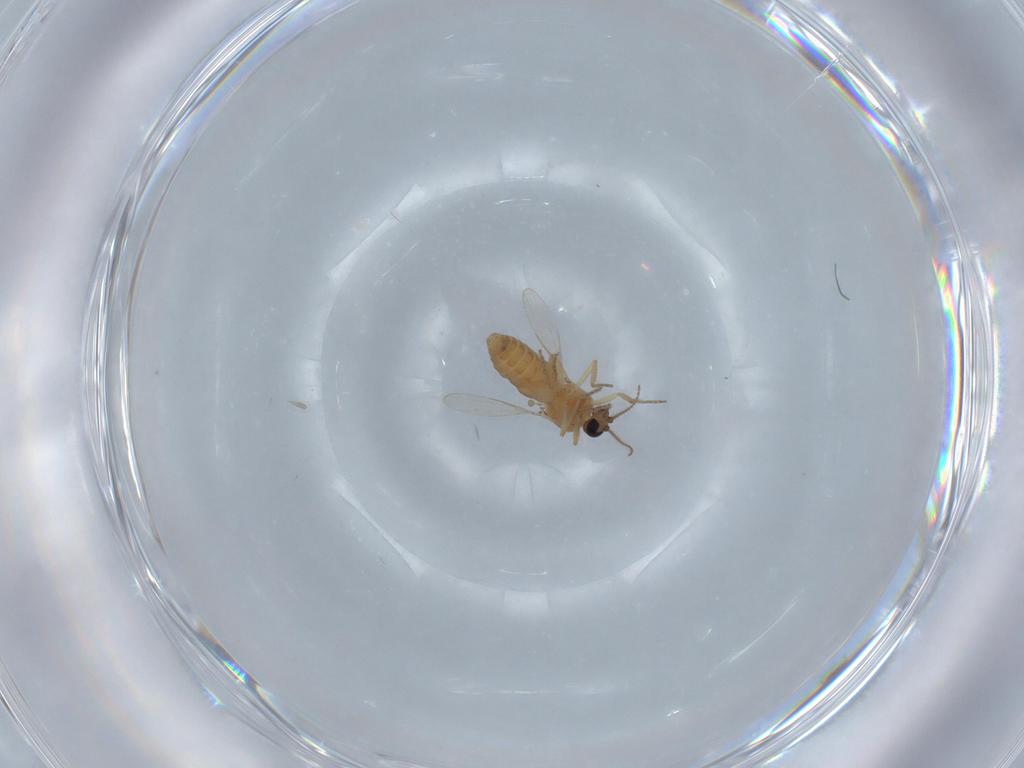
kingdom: Animalia
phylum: Arthropoda
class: Insecta
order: Diptera
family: Ceratopogonidae
